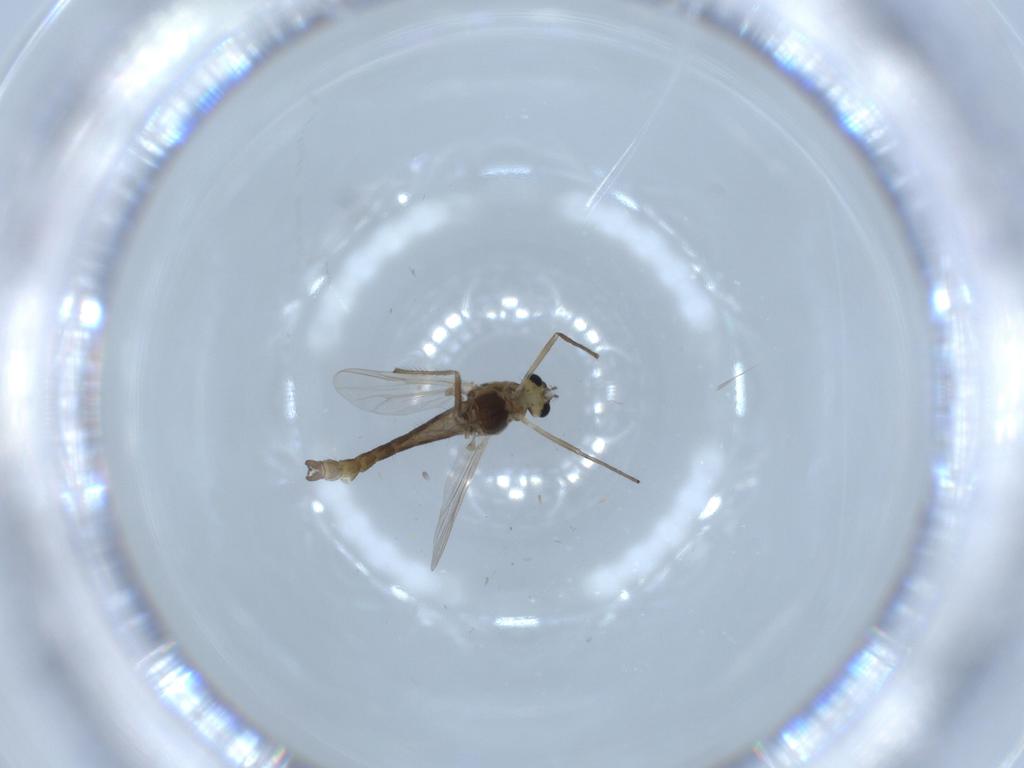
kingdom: Animalia
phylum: Arthropoda
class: Insecta
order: Diptera
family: Chironomidae
